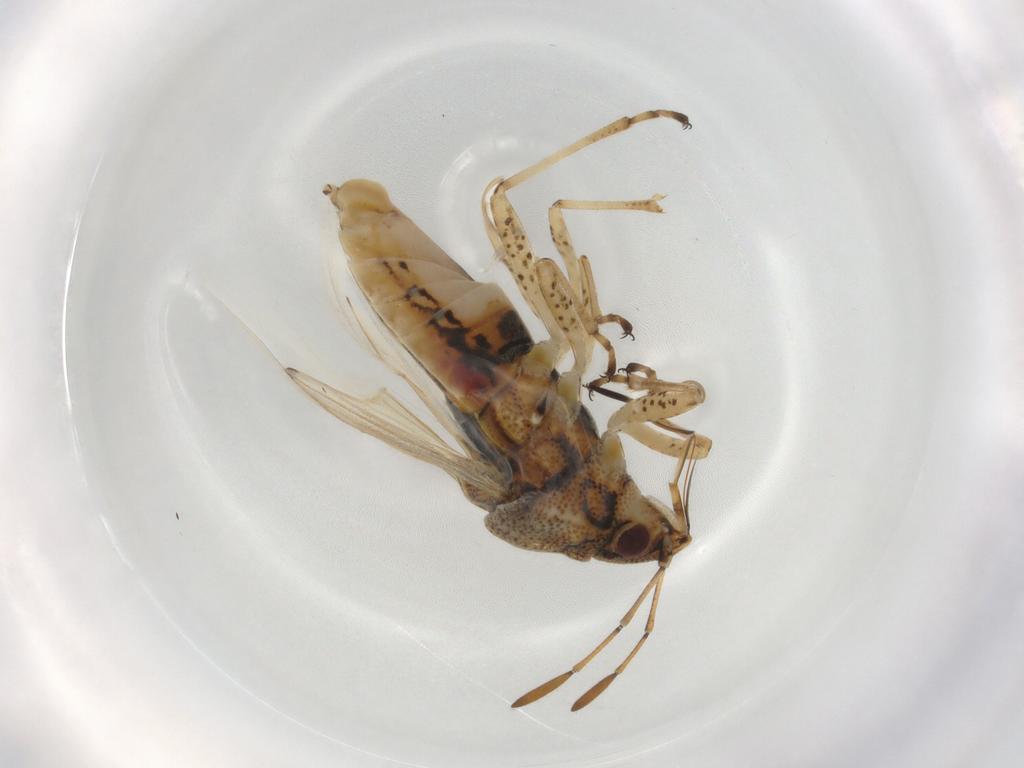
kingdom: Animalia
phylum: Arthropoda
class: Insecta
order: Hemiptera
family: Lygaeidae
